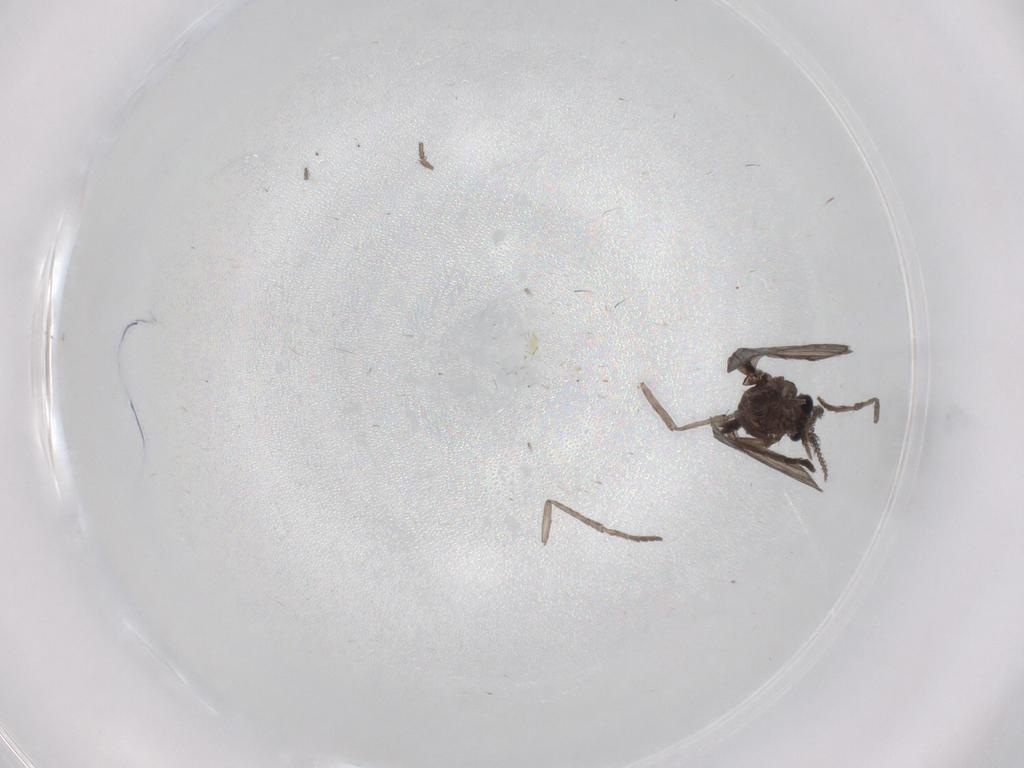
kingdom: Animalia
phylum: Arthropoda
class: Insecta
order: Diptera
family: Psychodidae
